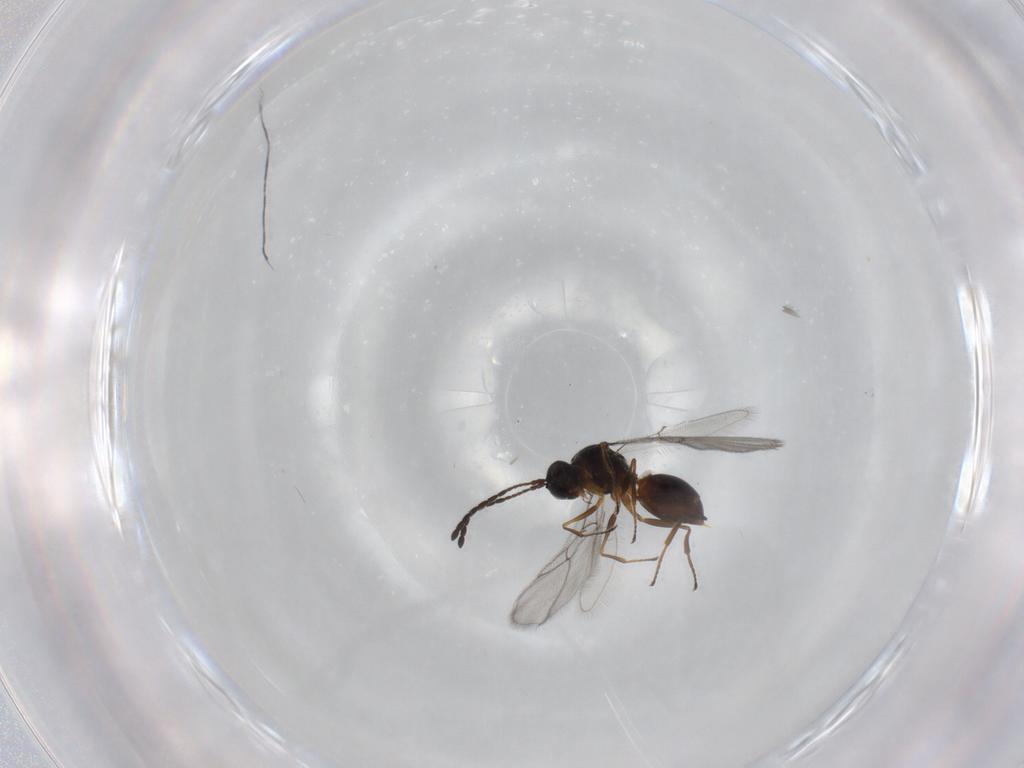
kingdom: Animalia
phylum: Arthropoda
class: Insecta
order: Hymenoptera
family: Figitidae
